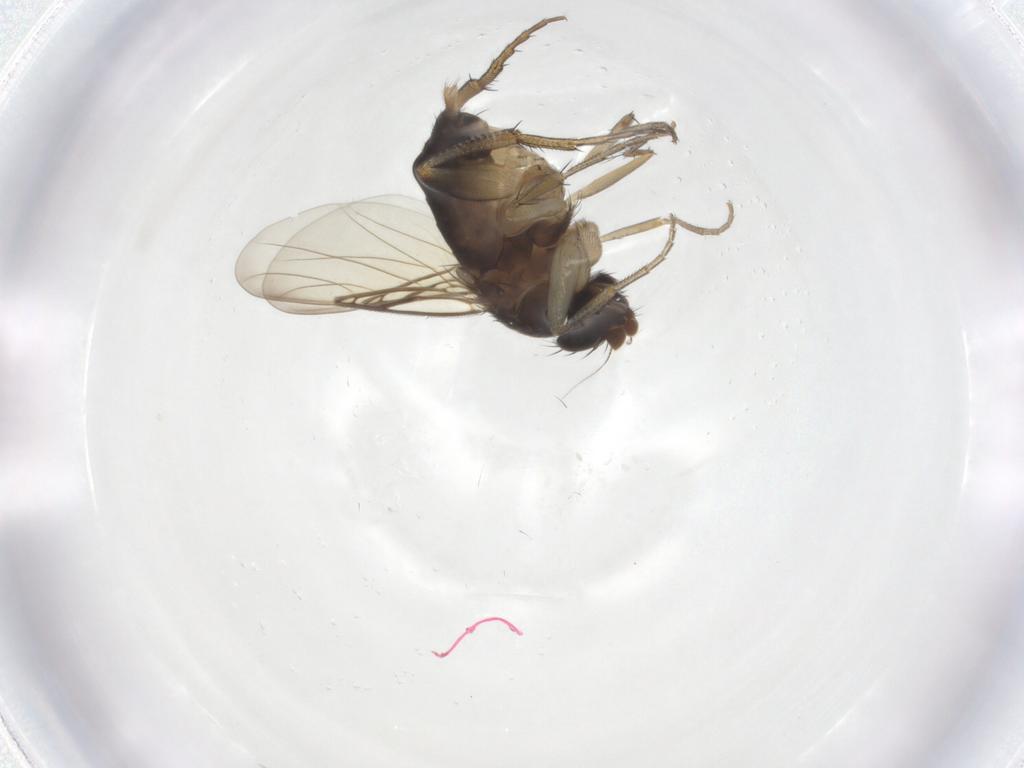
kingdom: Animalia
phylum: Arthropoda
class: Insecta
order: Diptera
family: Phoridae
